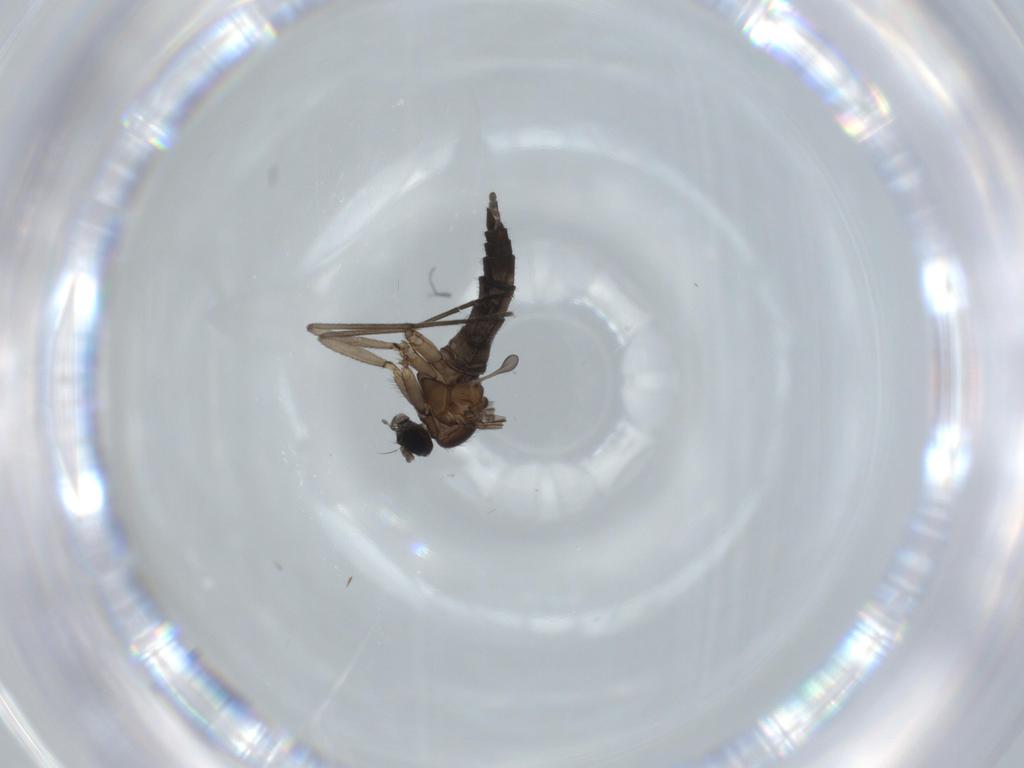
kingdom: Animalia
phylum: Arthropoda
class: Insecta
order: Diptera
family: Sciaridae
